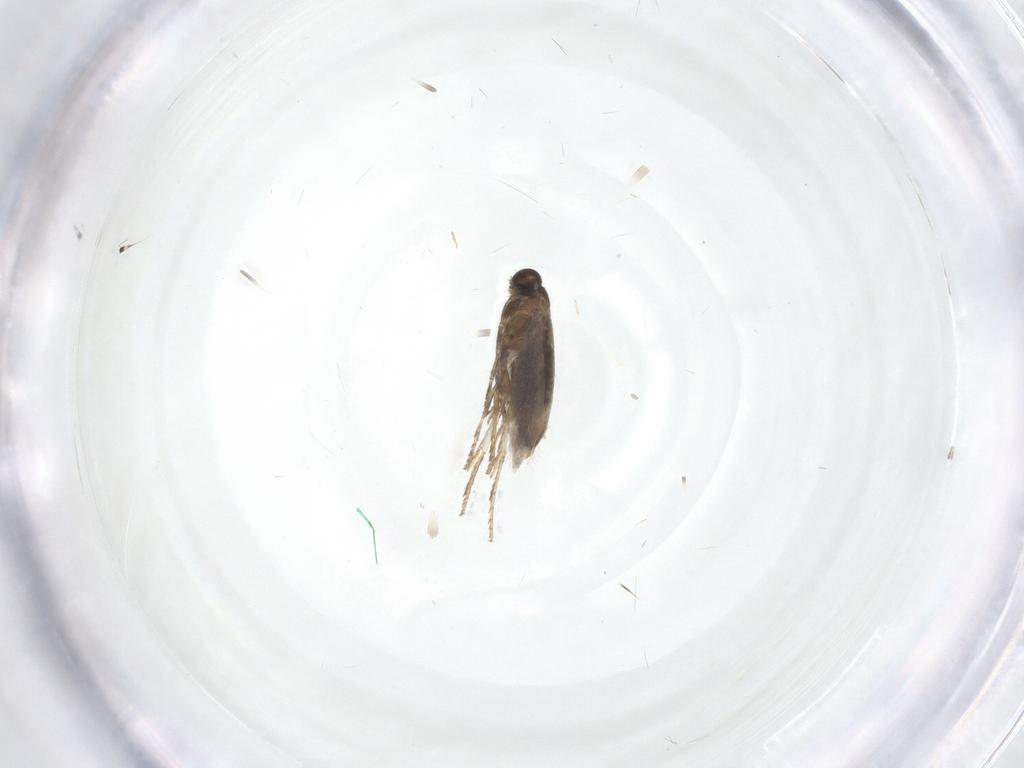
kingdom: Animalia
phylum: Arthropoda
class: Insecta
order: Lepidoptera
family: Heliozelidae
